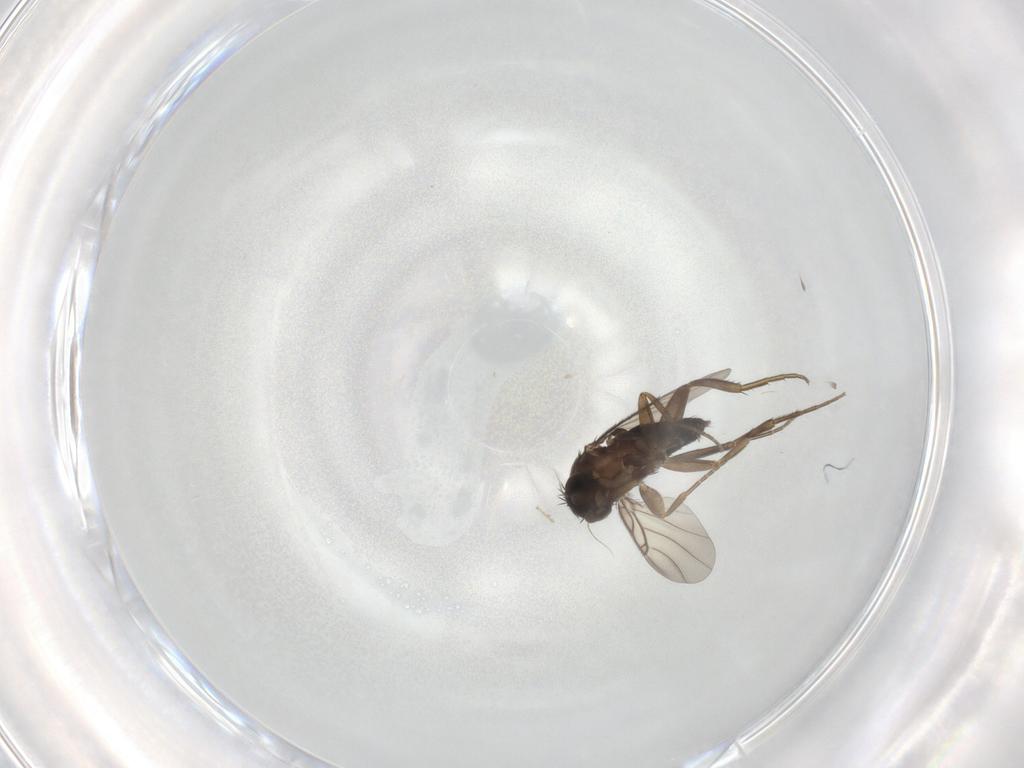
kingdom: Animalia
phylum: Arthropoda
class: Insecta
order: Diptera
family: Phoridae
